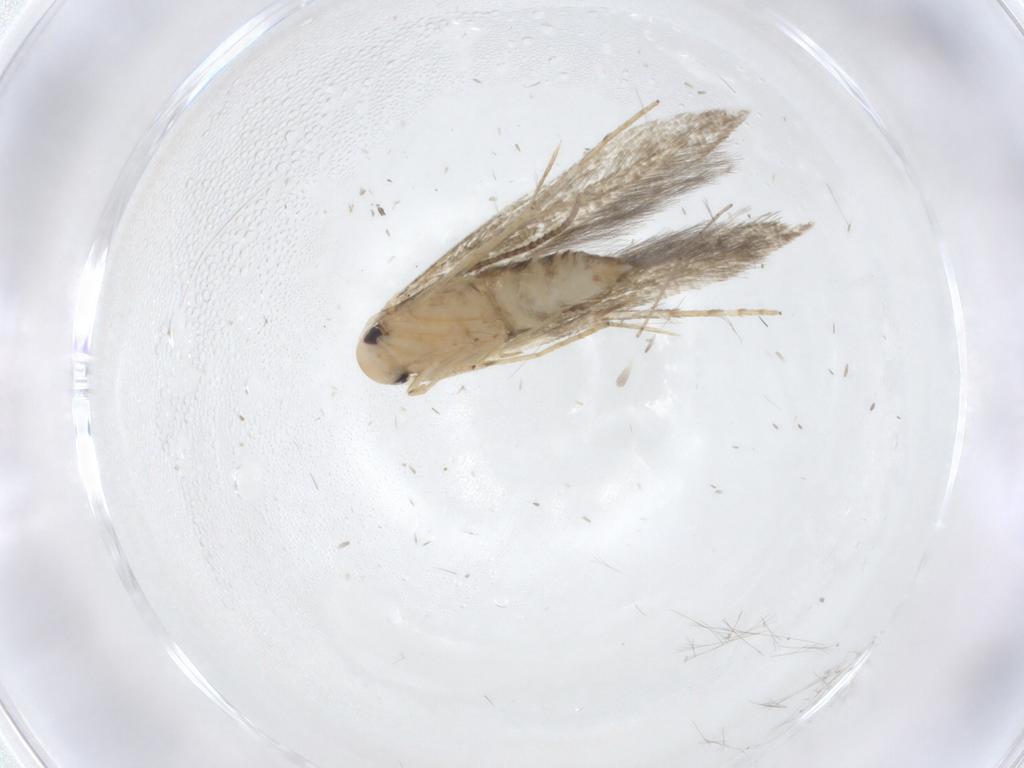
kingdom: Animalia
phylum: Arthropoda
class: Insecta
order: Lepidoptera
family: Stathmopodidae
